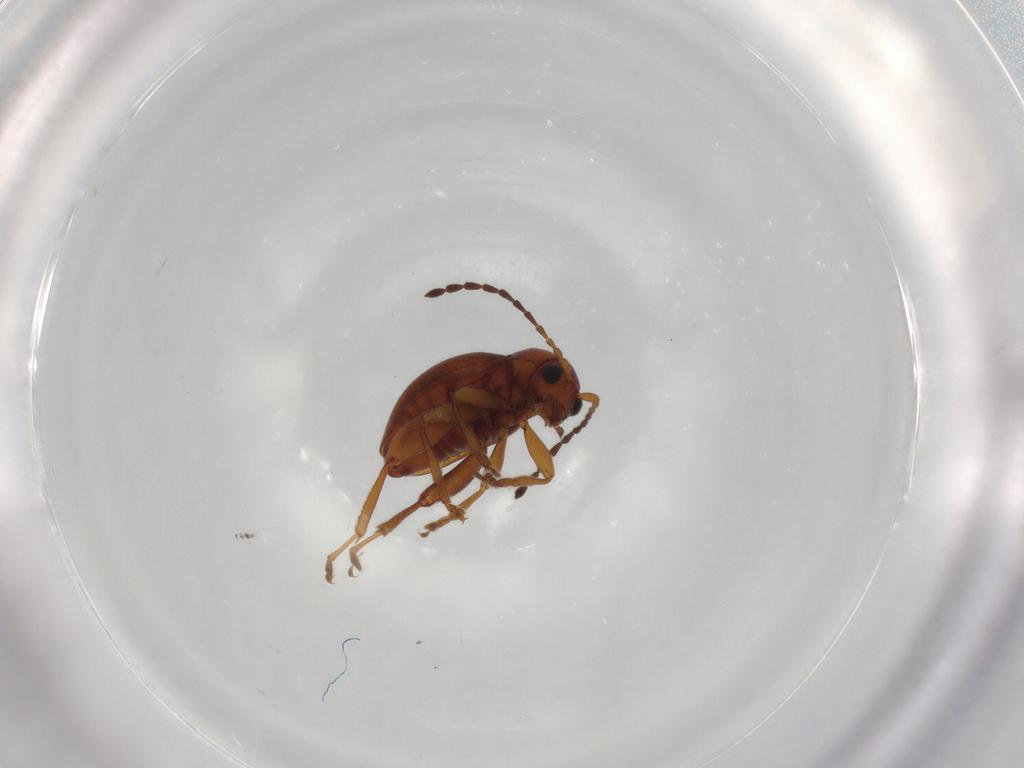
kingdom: Animalia
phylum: Arthropoda
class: Insecta
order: Coleoptera
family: Chrysomelidae
